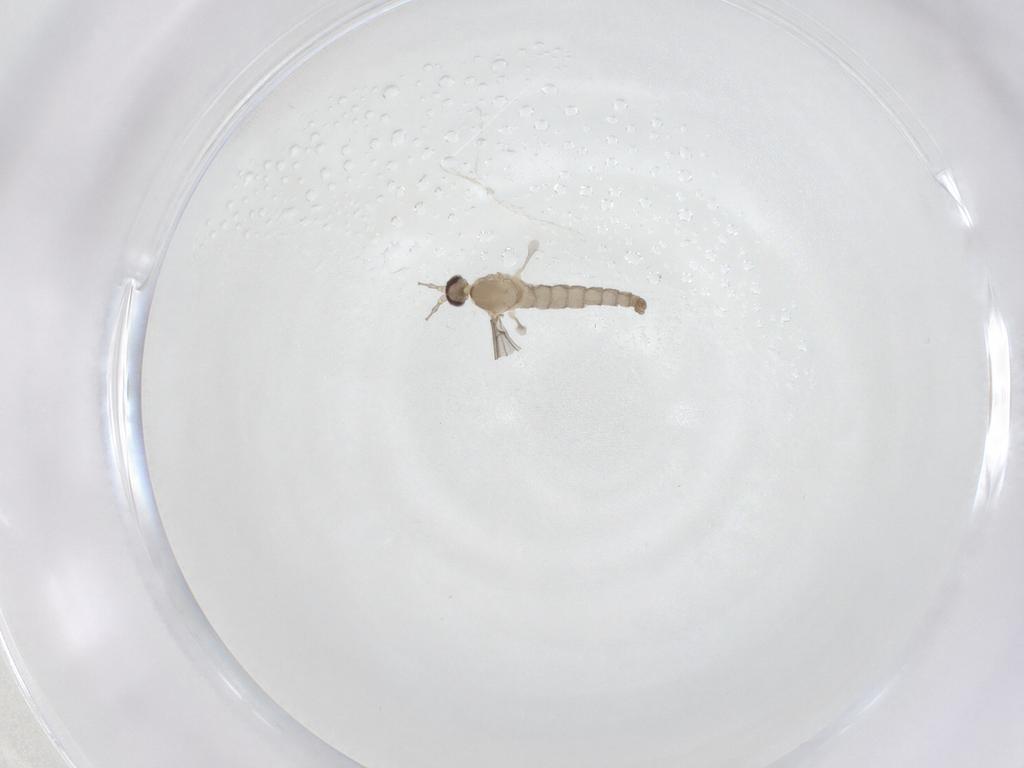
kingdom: Animalia
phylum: Arthropoda
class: Insecta
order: Diptera
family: Cecidomyiidae
